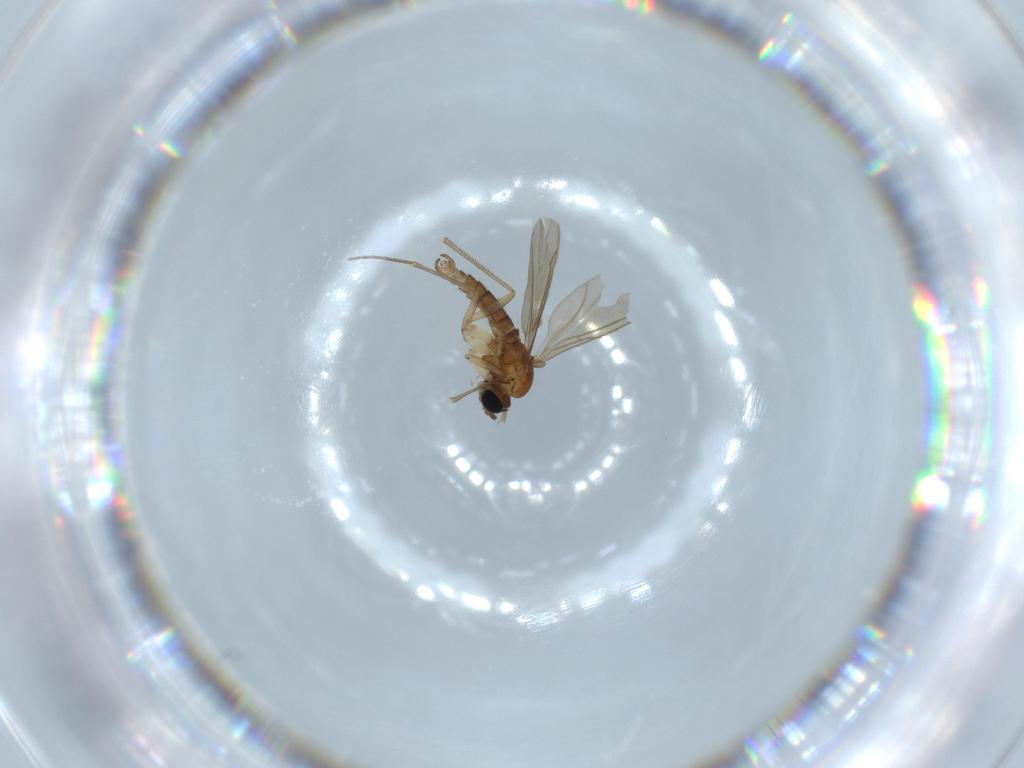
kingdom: Animalia
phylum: Arthropoda
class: Insecta
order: Diptera
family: Sciaridae
